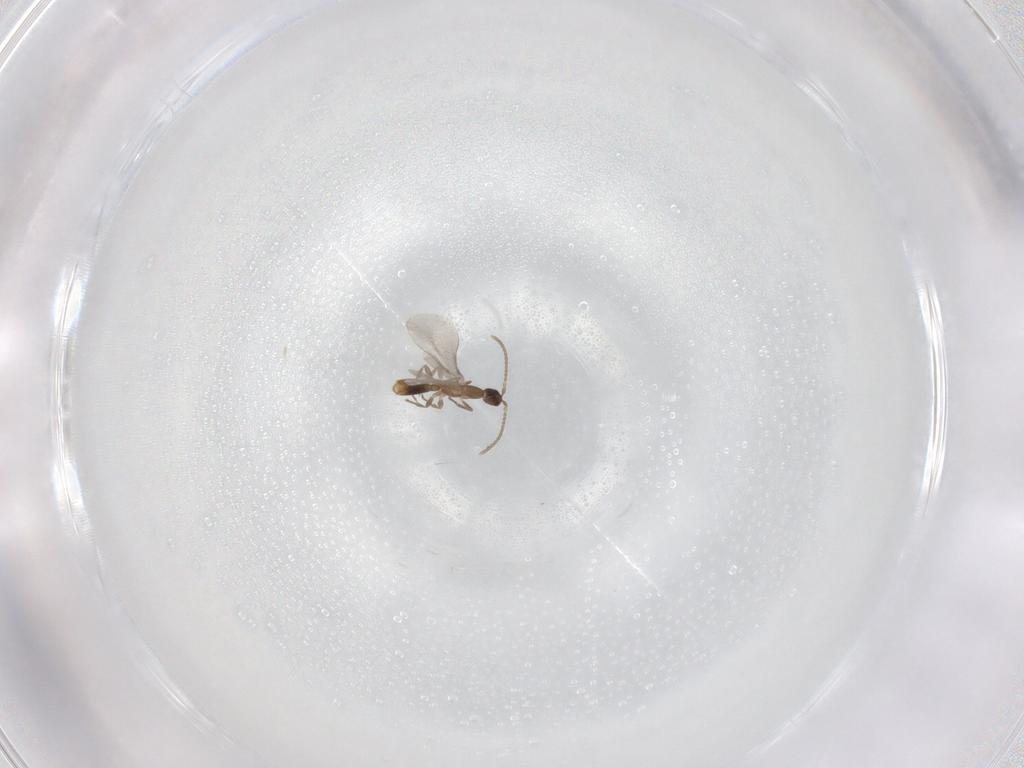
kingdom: Animalia
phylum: Arthropoda
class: Insecta
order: Hymenoptera
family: Formicidae
